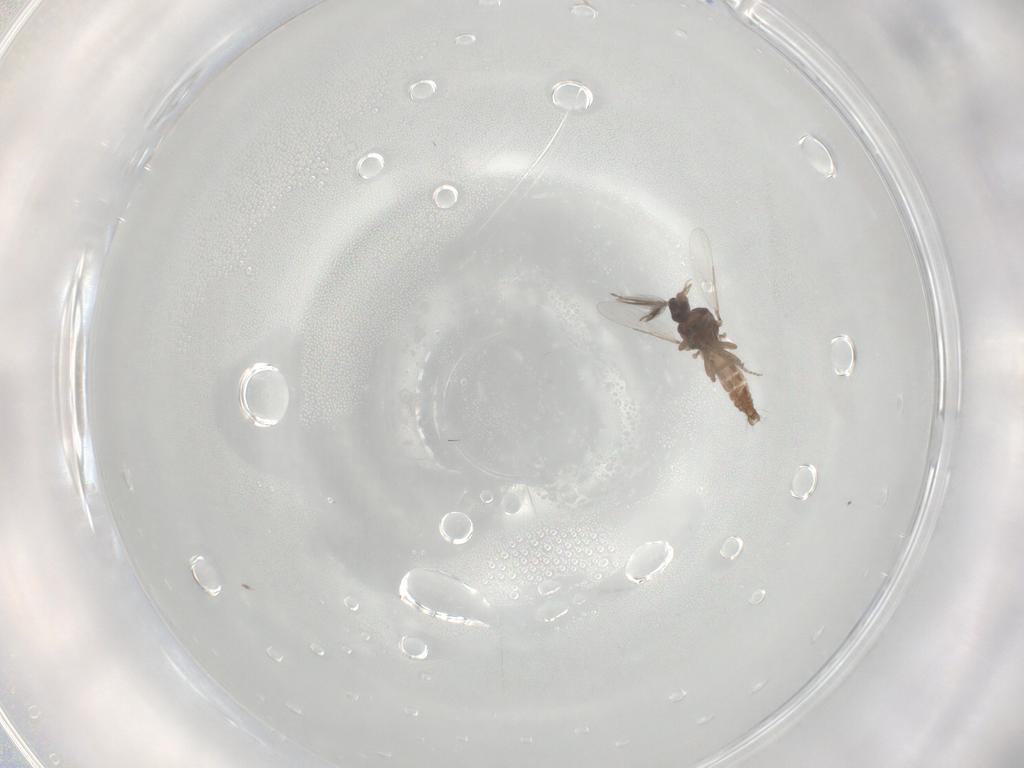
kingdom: Animalia
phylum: Arthropoda
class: Insecta
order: Diptera
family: Ceratopogonidae
